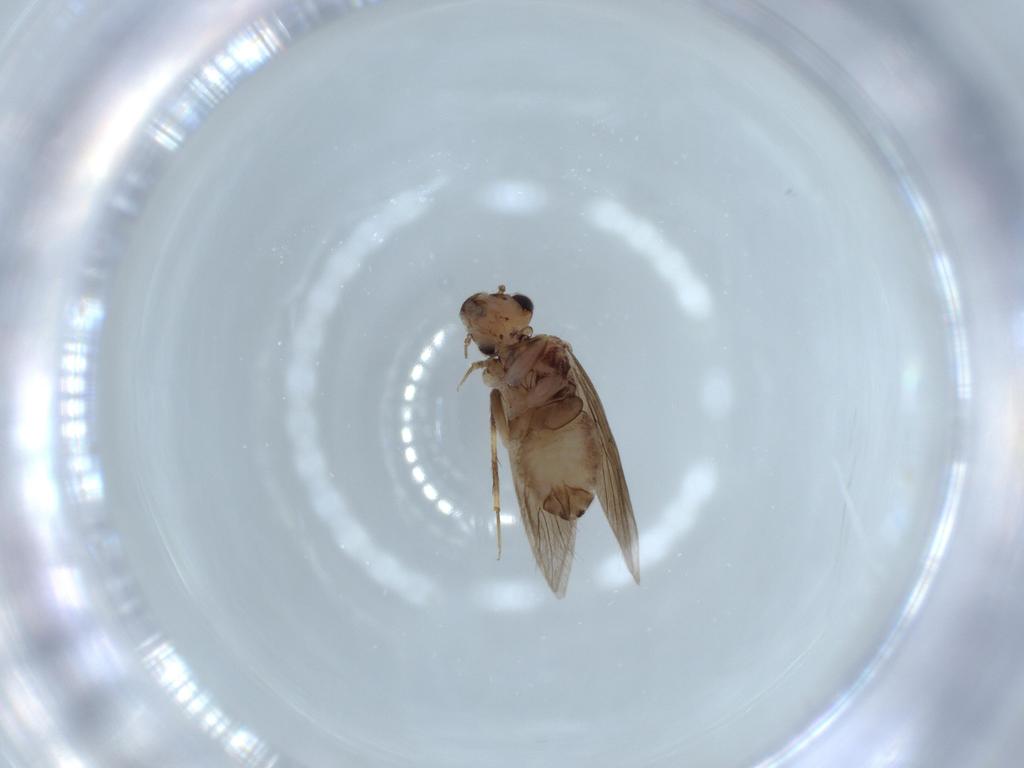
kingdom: Animalia
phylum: Arthropoda
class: Insecta
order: Psocodea
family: Lepidopsocidae
